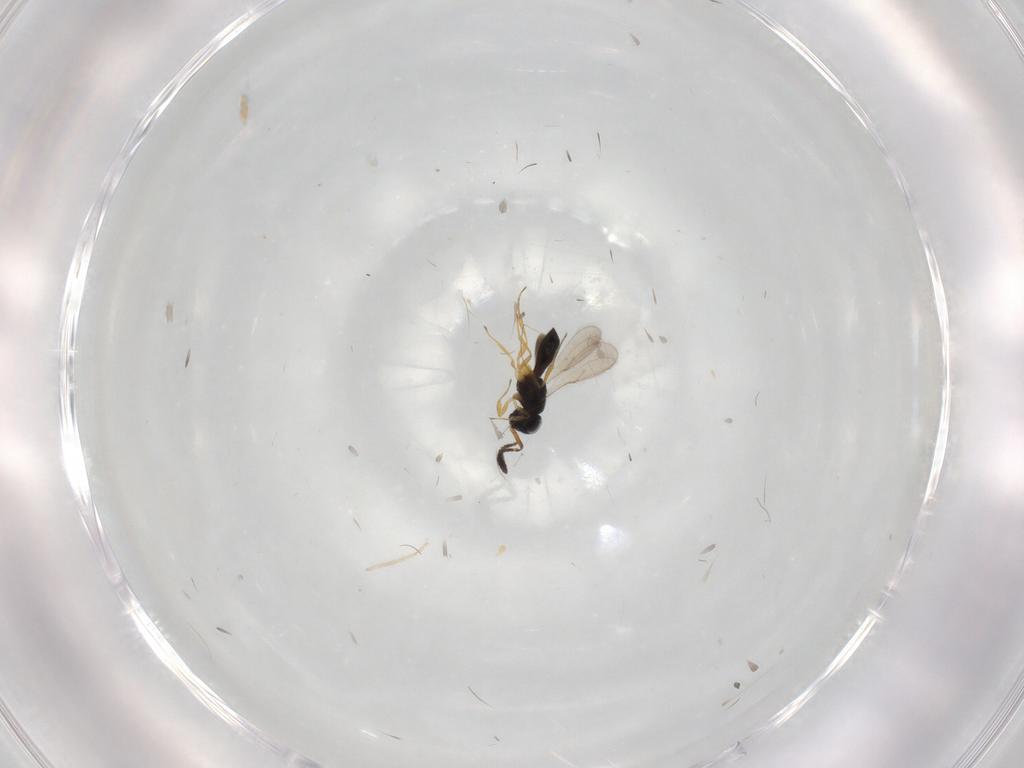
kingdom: Animalia
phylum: Arthropoda
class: Insecta
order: Hymenoptera
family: Scelionidae
